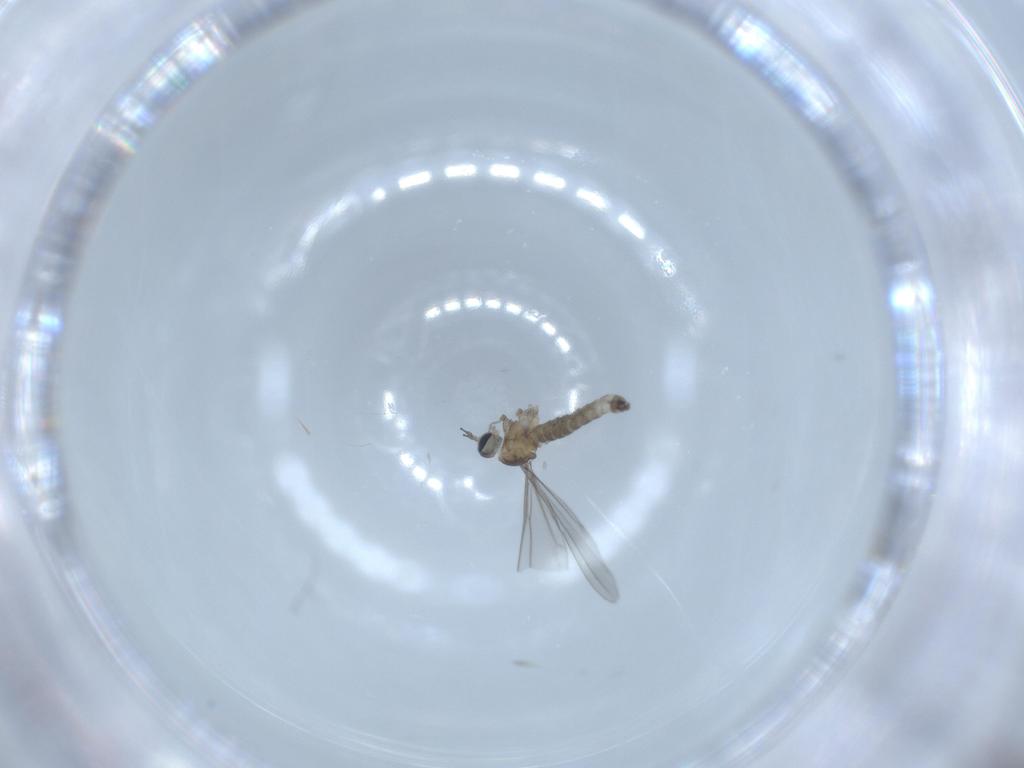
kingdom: Animalia
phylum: Arthropoda
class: Insecta
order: Diptera
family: Cecidomyiidae
